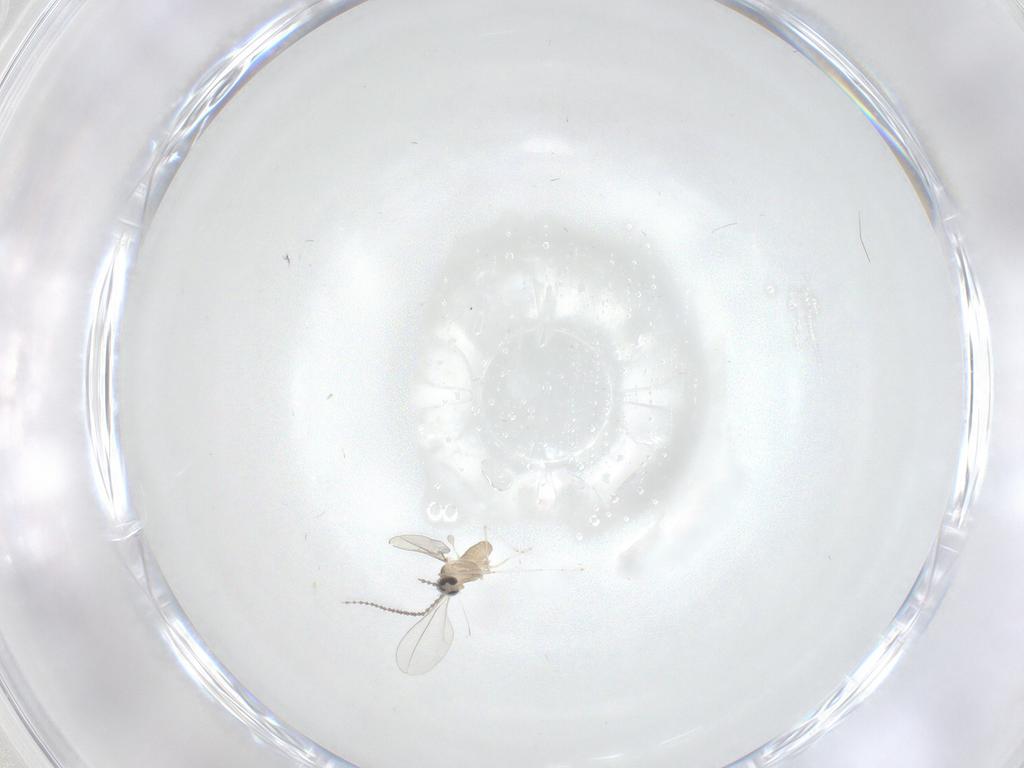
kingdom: Animalia
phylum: Arthropoda
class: Insecta
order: Diptera
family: Cecidomyiidae
